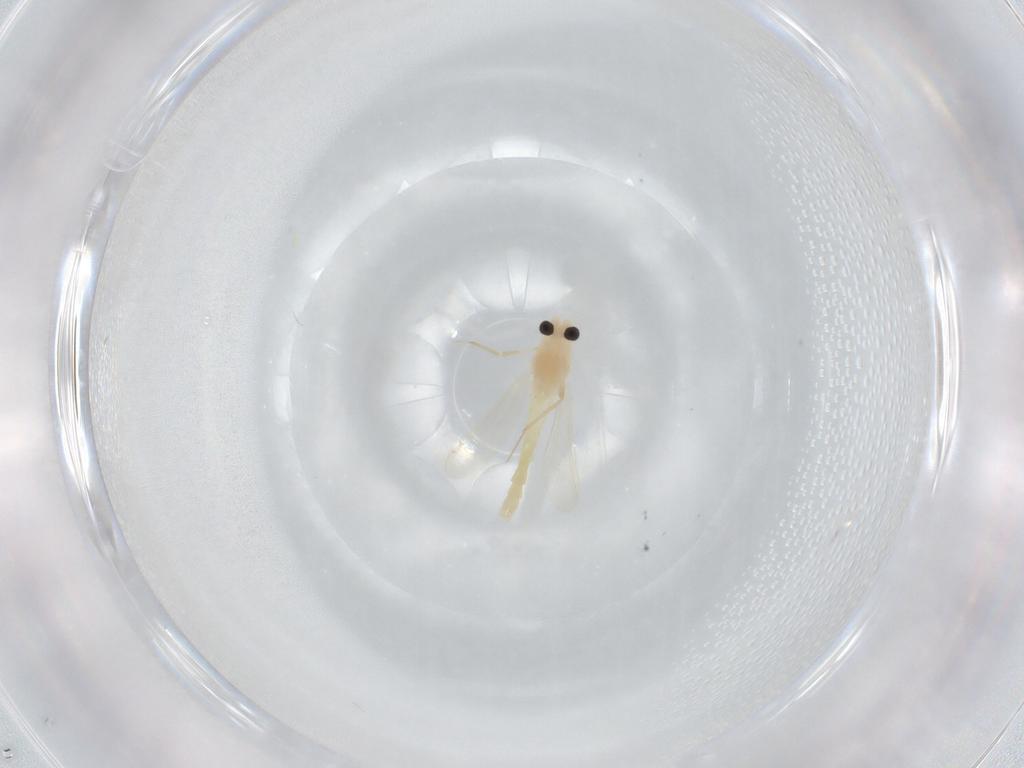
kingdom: Animalia
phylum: Arthropoda
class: Insecta
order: Diptera
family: Chironomidae
